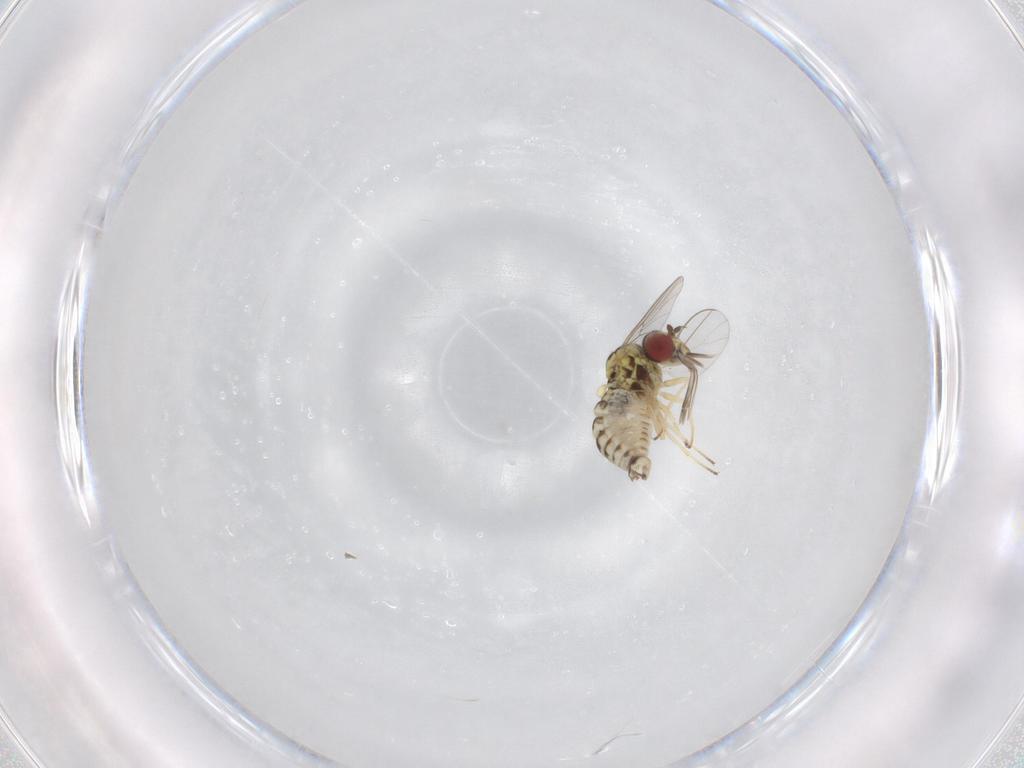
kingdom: Animalia
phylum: Arthropoda
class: Insecta
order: Diptera
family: Bombyliidae
